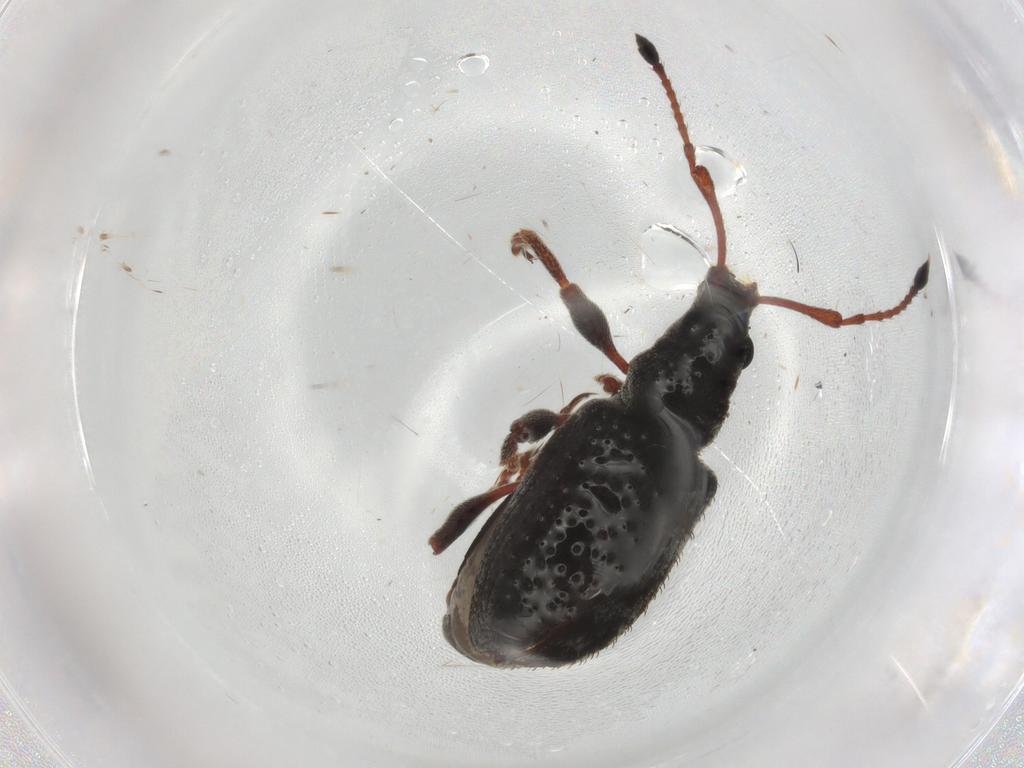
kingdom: Animalia
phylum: Arthropoda
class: Insecta
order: Coleoptera
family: Curculionidae
